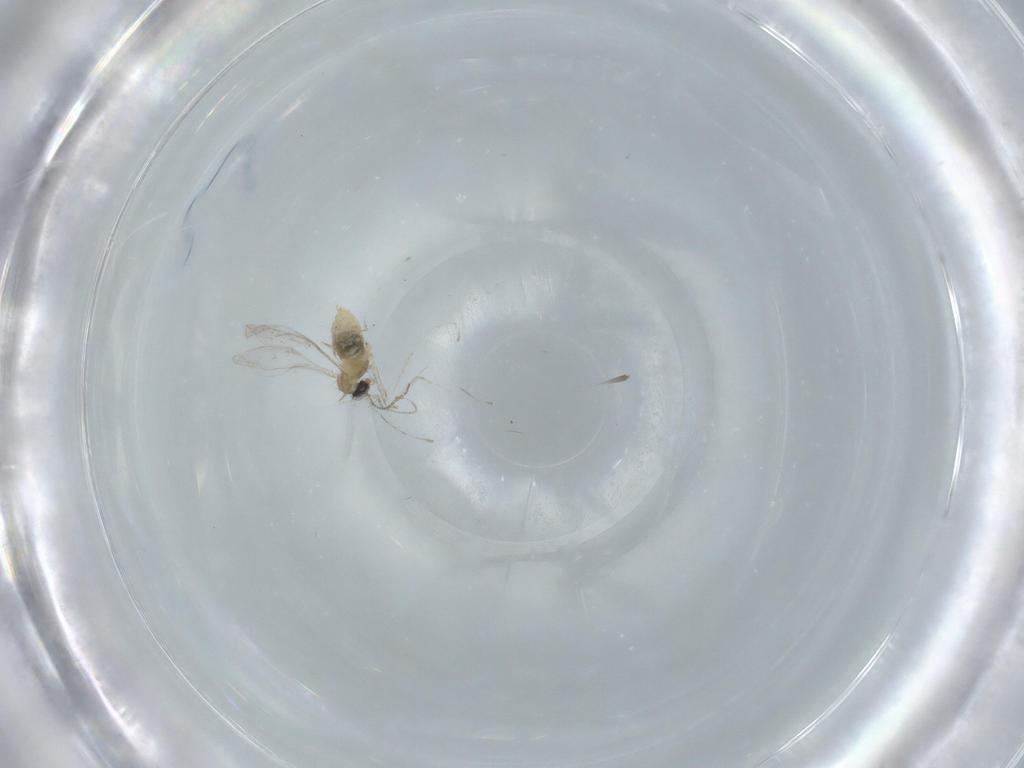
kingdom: Animalia
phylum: Arthropoda
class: Insecta
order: Diptera
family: Cecidomyiidae
